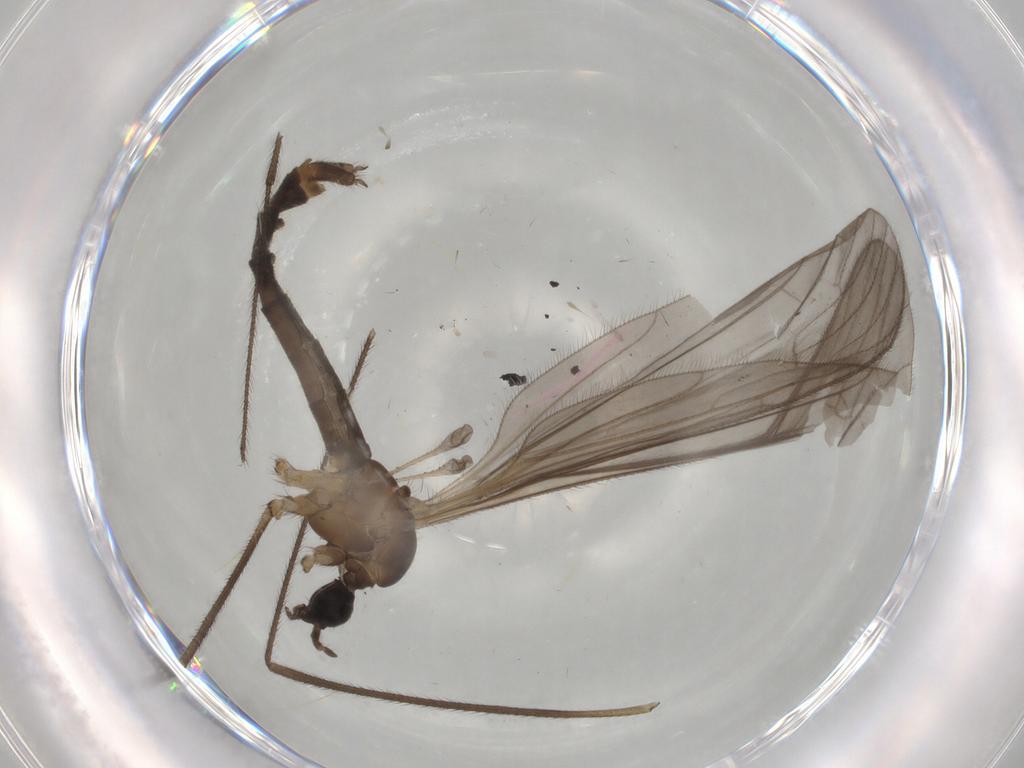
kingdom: Animalia
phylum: Arthropoda
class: Insecta
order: Diptera
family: Limoniidae
